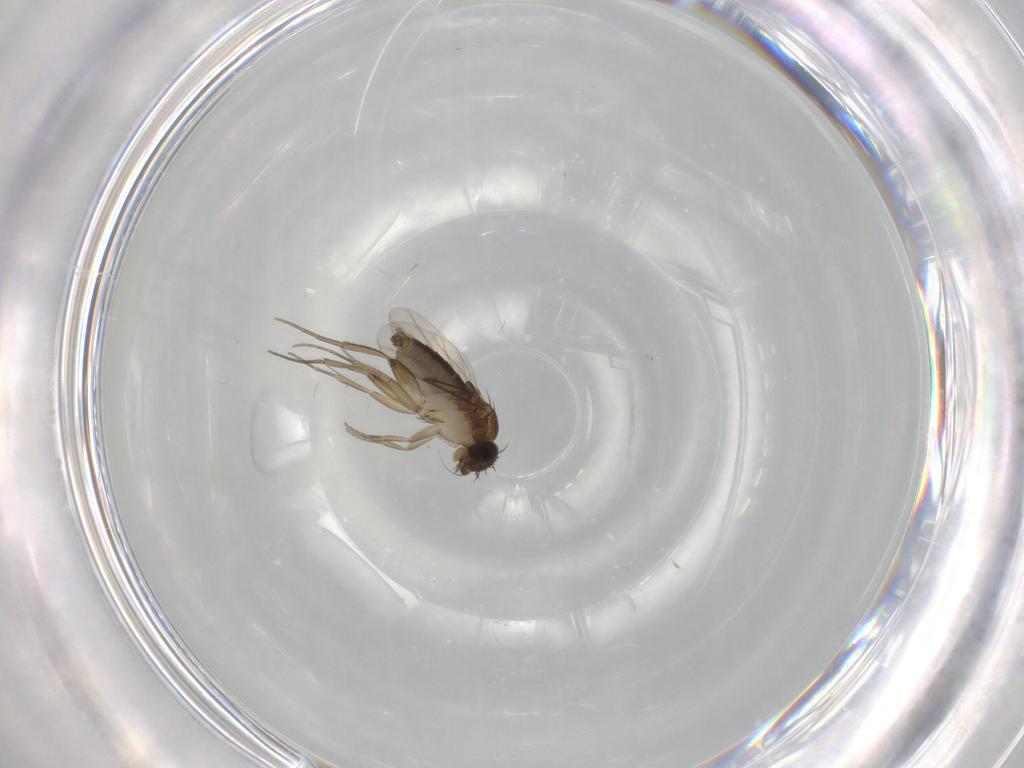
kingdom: Animalia
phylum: Arthropoda
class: Insecta
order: Diptera
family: Phoridae
